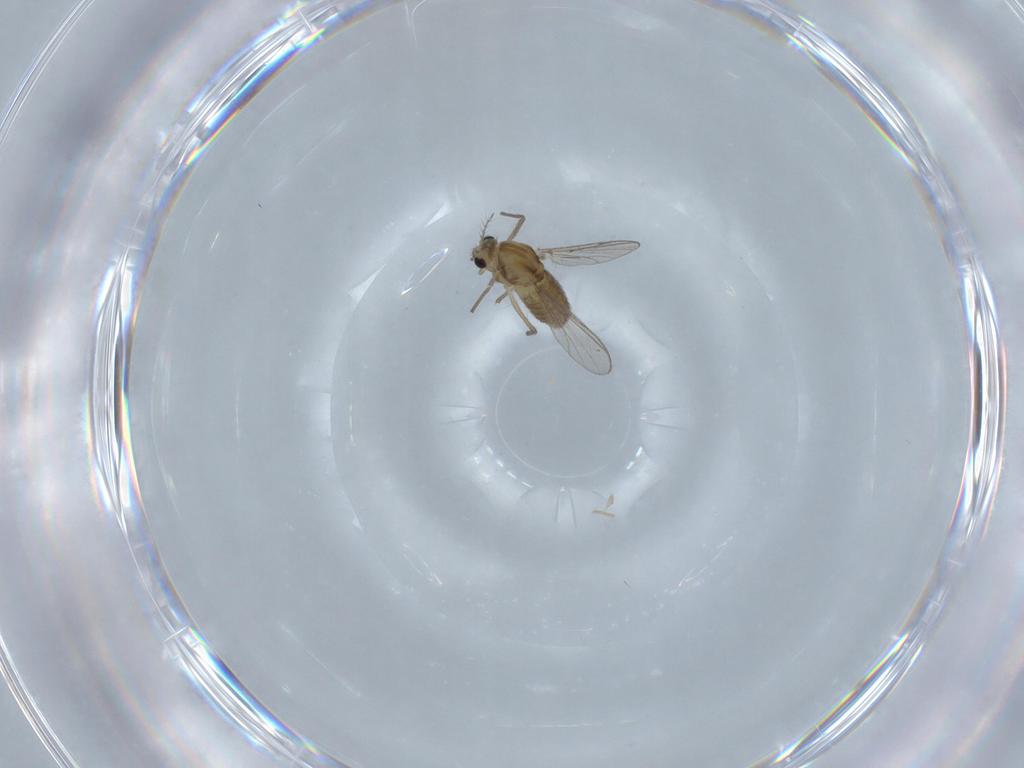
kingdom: Animalia
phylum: Arthropoda
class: Insecta
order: Diptera
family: Chironomidae
